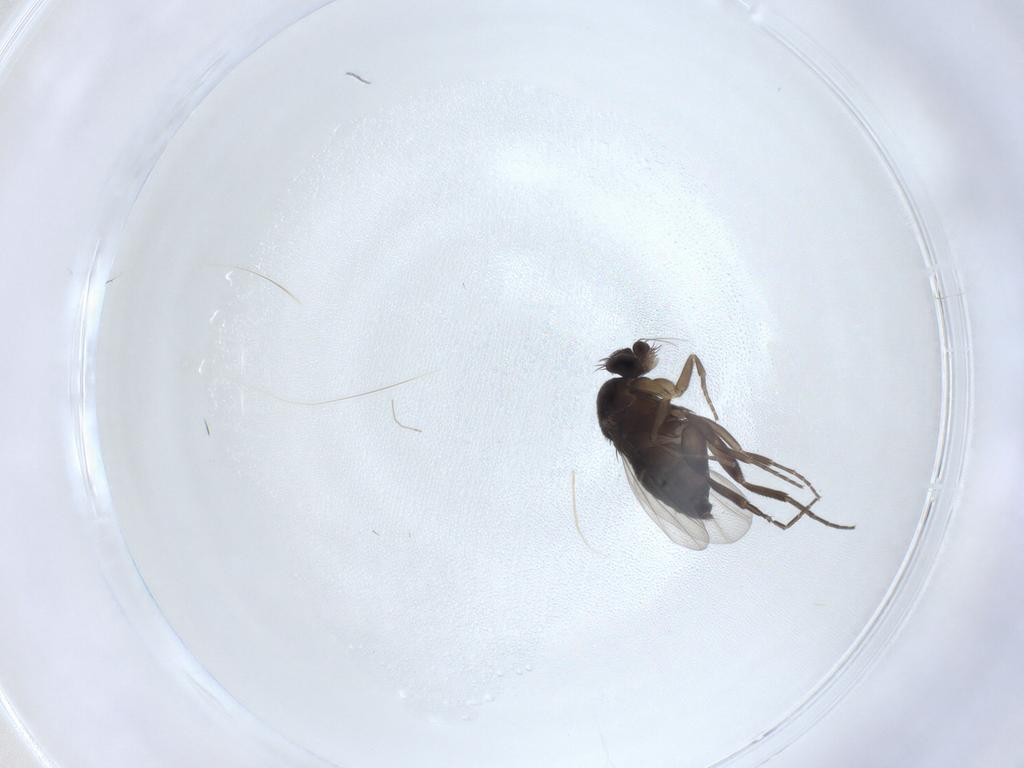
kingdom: Animalia
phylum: Arthropoda
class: Insecta
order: Diptera
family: Phoridae
